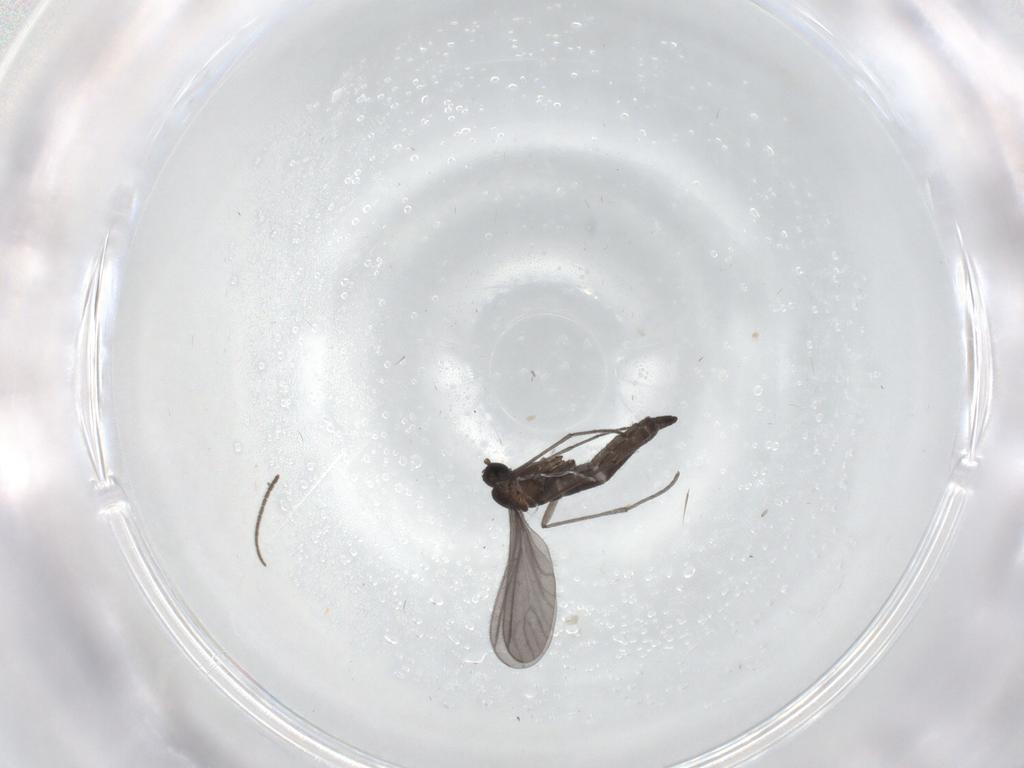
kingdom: Animalia
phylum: Arthropoda
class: Insecta
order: Diptera
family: Sciaridae
